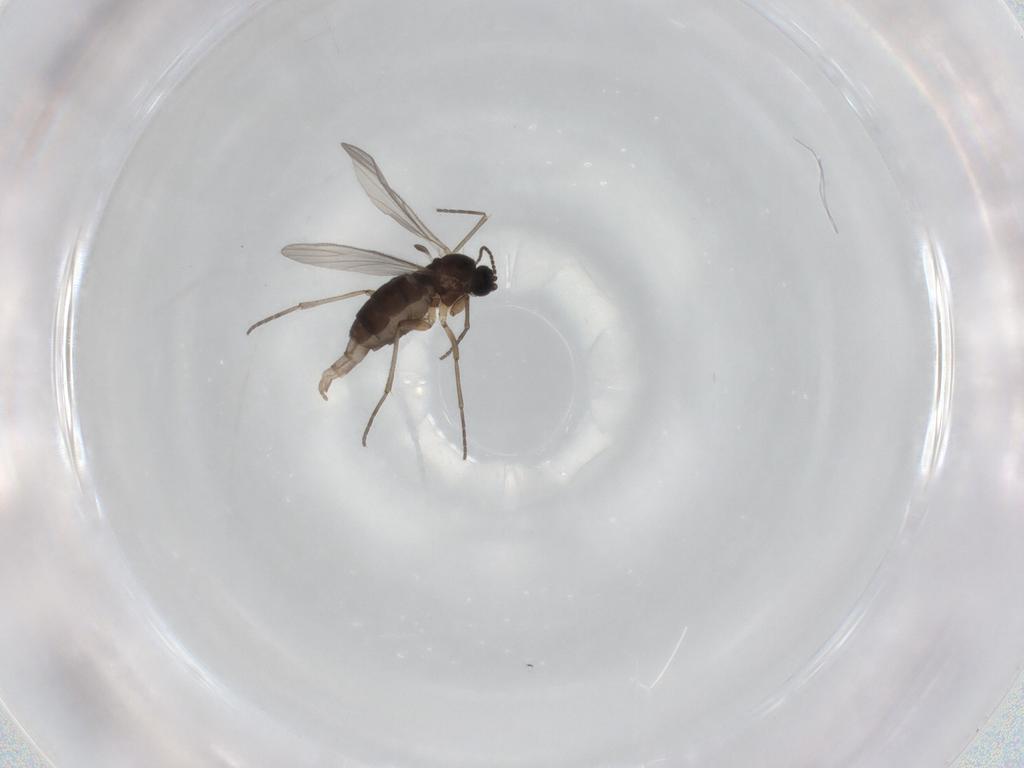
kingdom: Animalia
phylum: Arthropoda
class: Insecta
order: Diptera
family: Sciaridae
